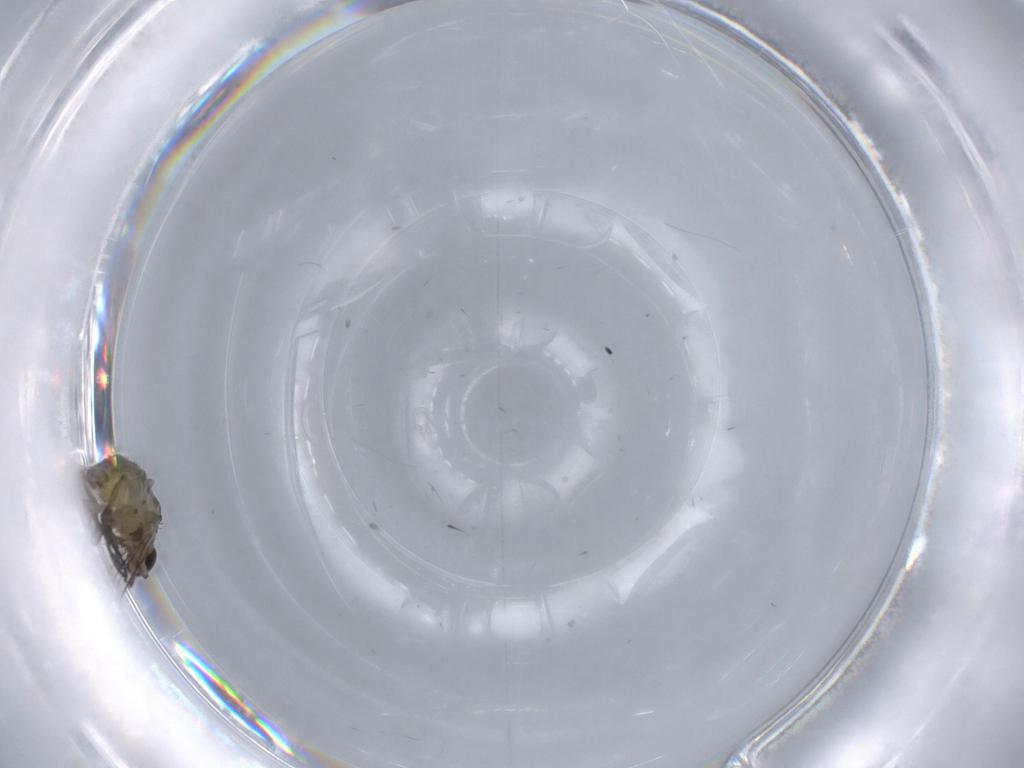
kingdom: Animalia
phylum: Arthropoda
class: Insecta
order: Diptera
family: Agromyzidae
